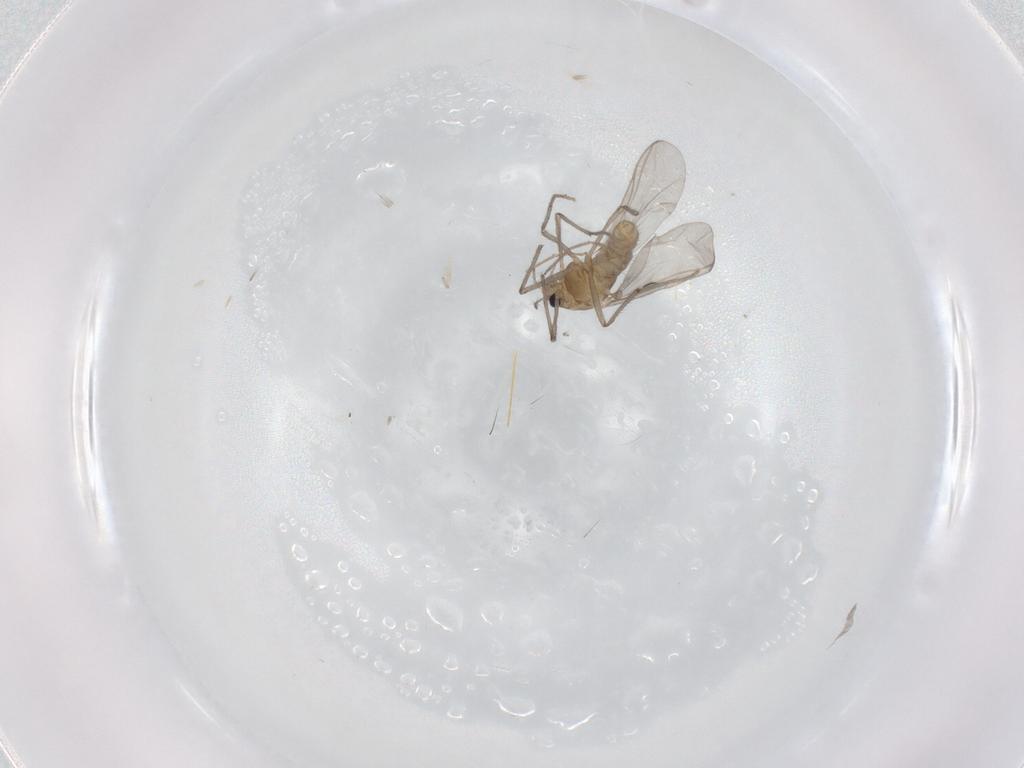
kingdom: Animalia
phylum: Arthropoda
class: Insecta
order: Diptera
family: Chironomidae
